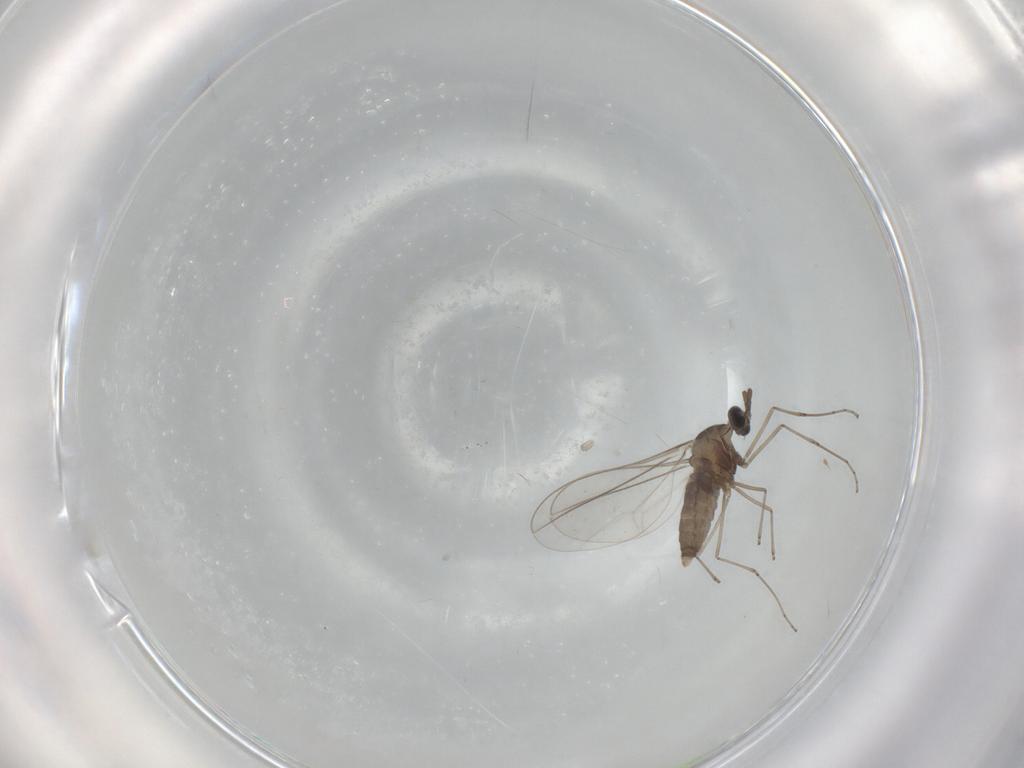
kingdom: Animalia
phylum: Arthropoda
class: Insecta
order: Diptera
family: Cecidomyiidae
